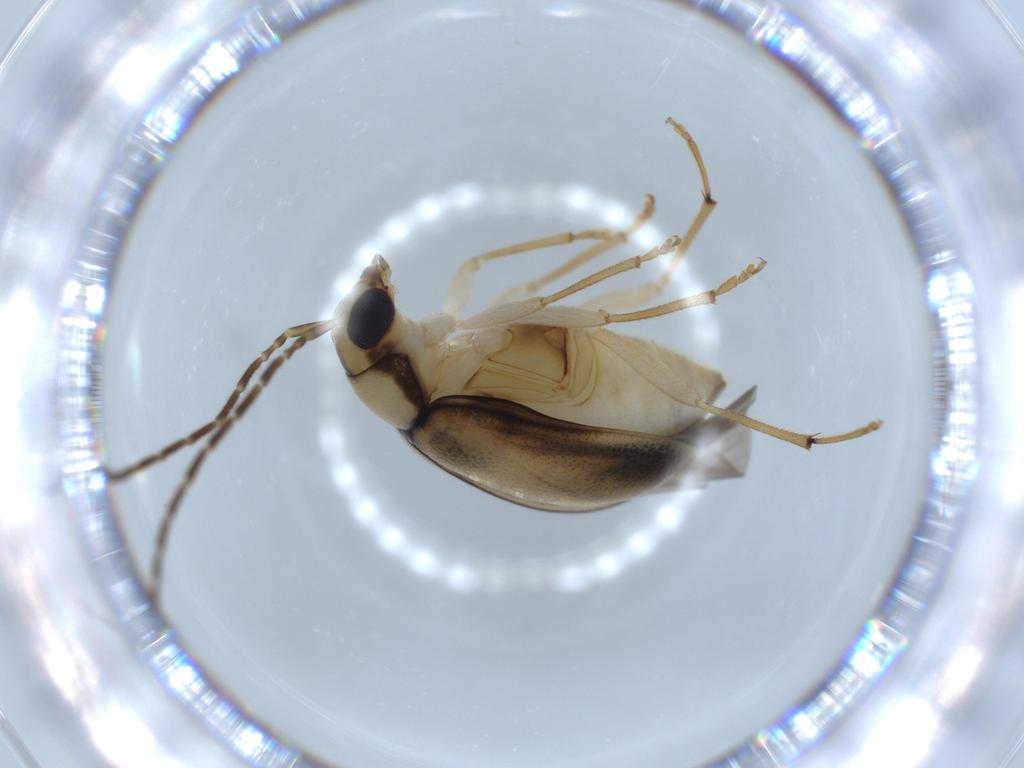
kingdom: Animalia
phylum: Arthropoda
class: Insecta
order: Coleoptera
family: Chrysomelidae
